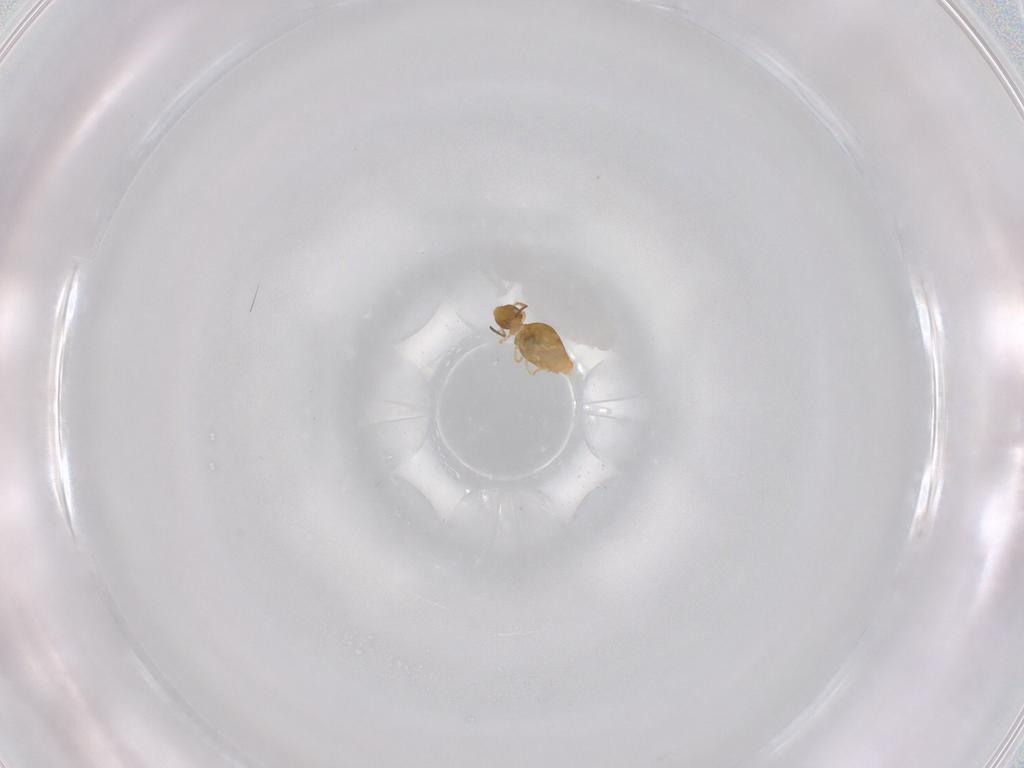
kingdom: Animalia
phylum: Arthropoda
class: Collembola
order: Symphypleona
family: Katiannidae
